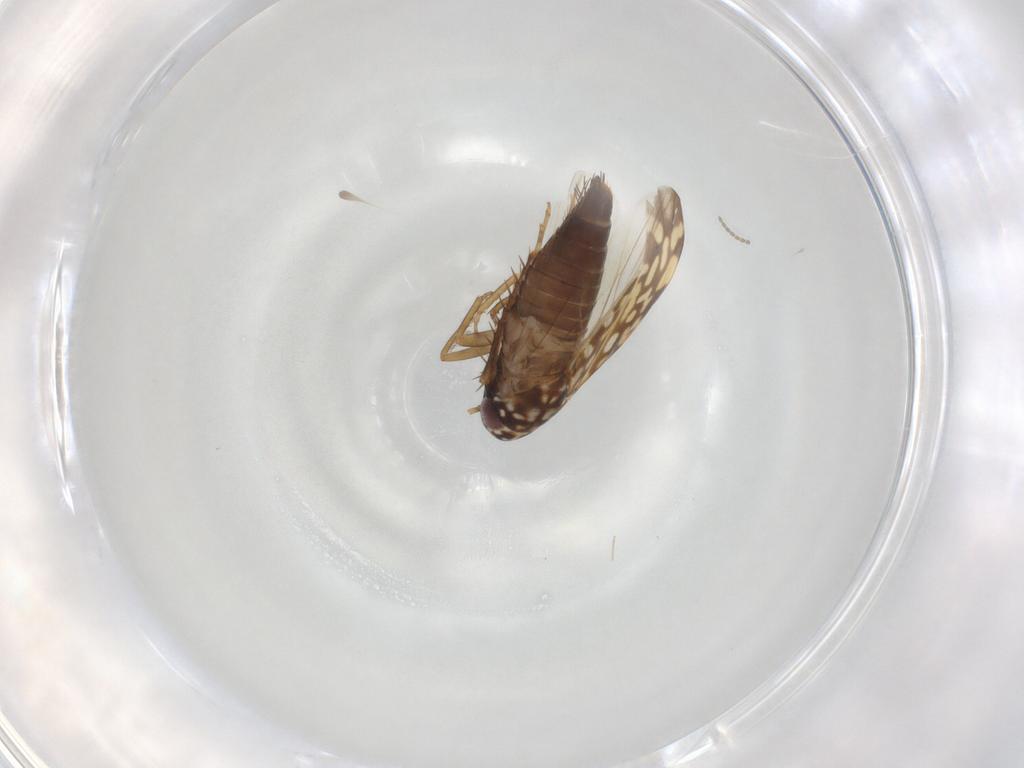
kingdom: Animalia
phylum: Arthropoda
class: Insecta
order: Hemiptera
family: Cicadellidae
